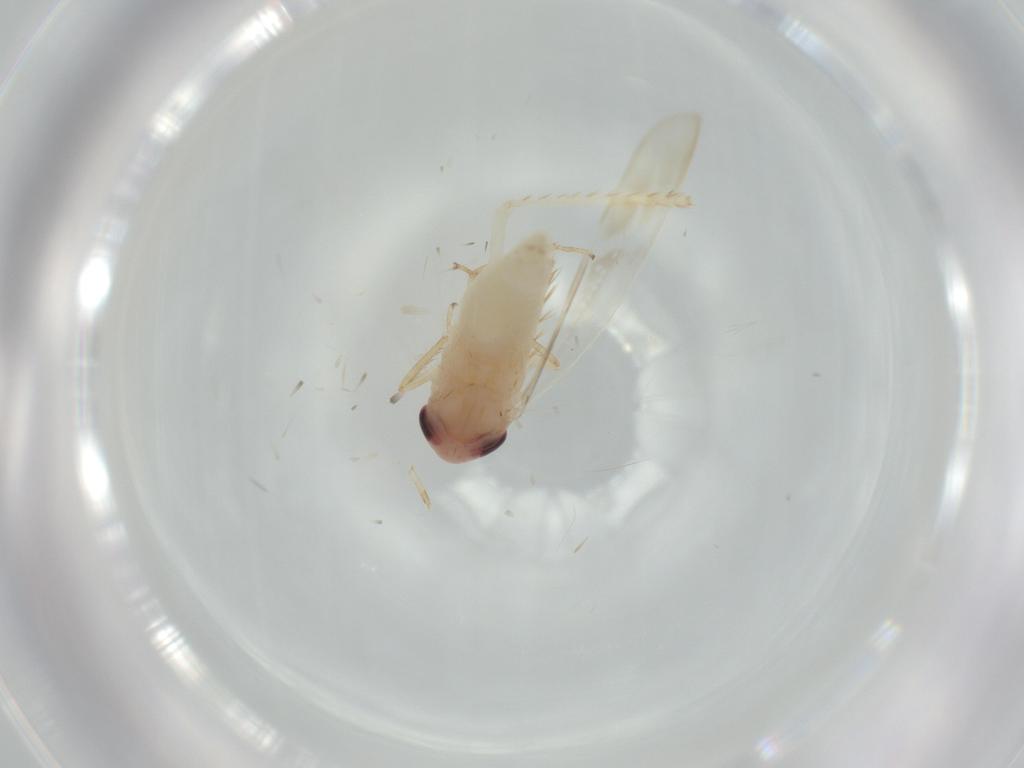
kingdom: Animalia
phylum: Arthropoda
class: Insecta
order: Hemiptera
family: Cicadellidae
